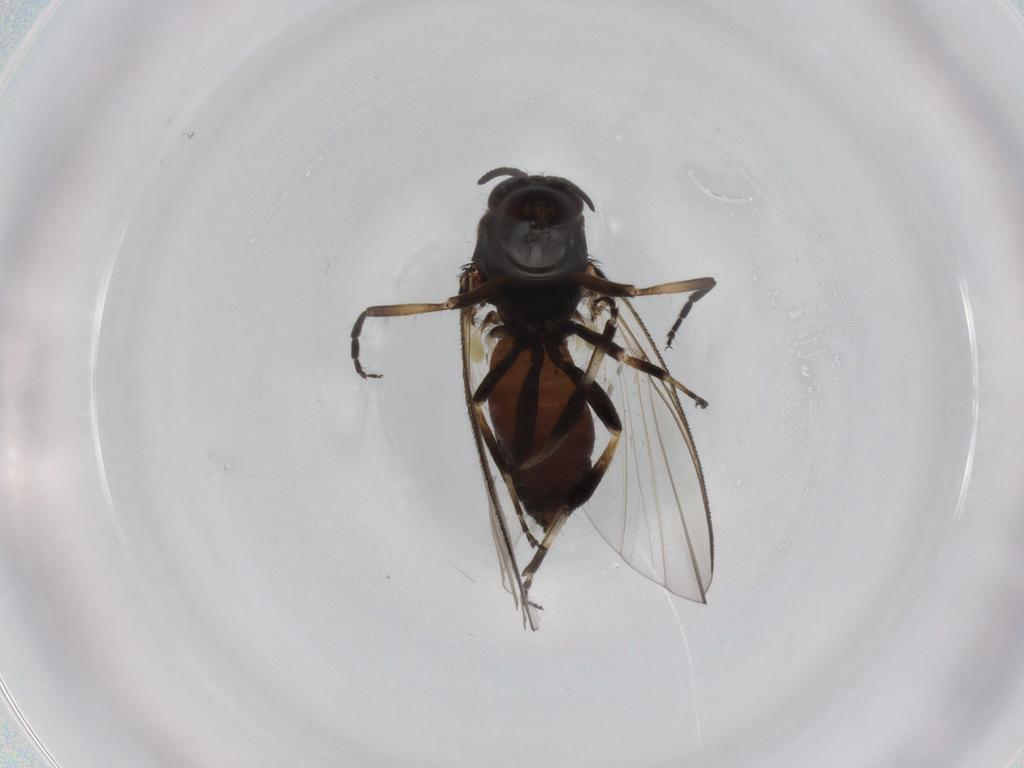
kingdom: Animalia
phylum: Arthropoda
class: Insecta
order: Diptera
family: Simuliidae
